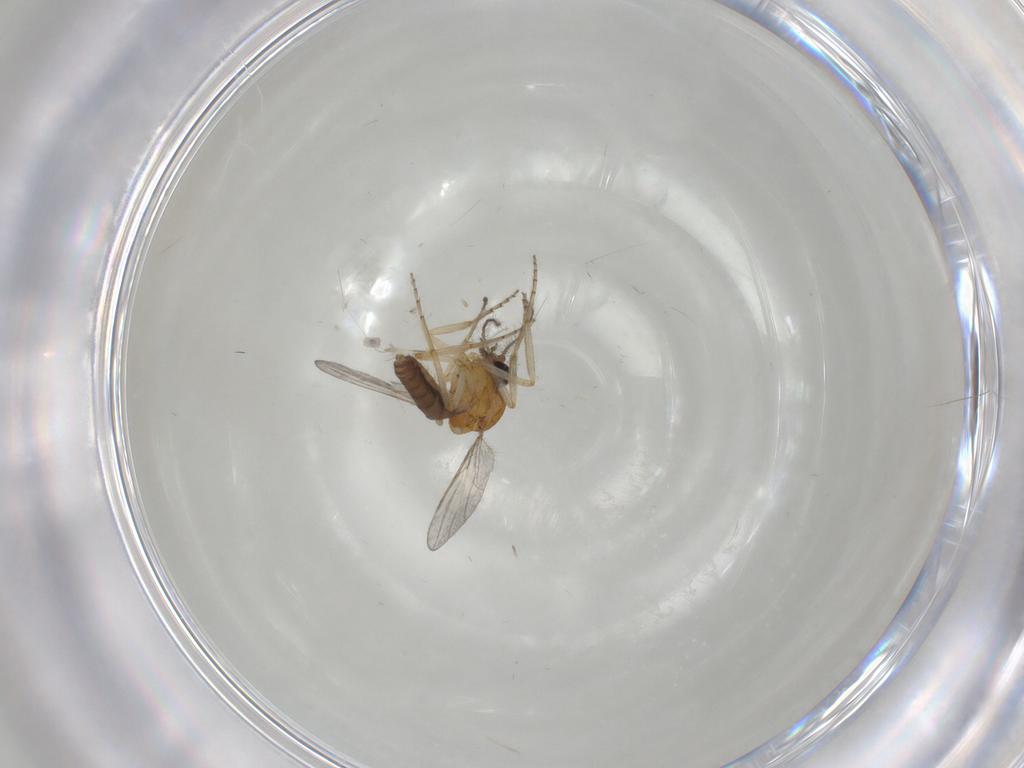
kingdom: Animalia
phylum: Arthropoda
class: Insecta
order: Diptera
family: Ceratopogonidae
